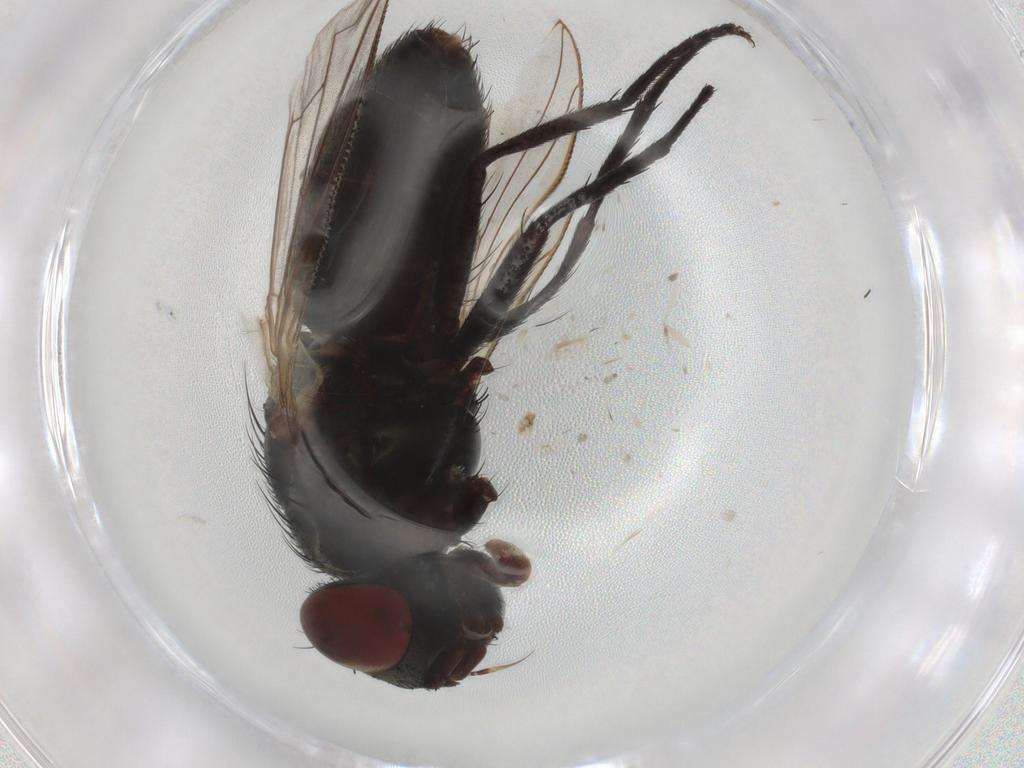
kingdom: Animalia
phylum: Arthropoda
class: Insecta
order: Diptera
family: Sarcophagidae
